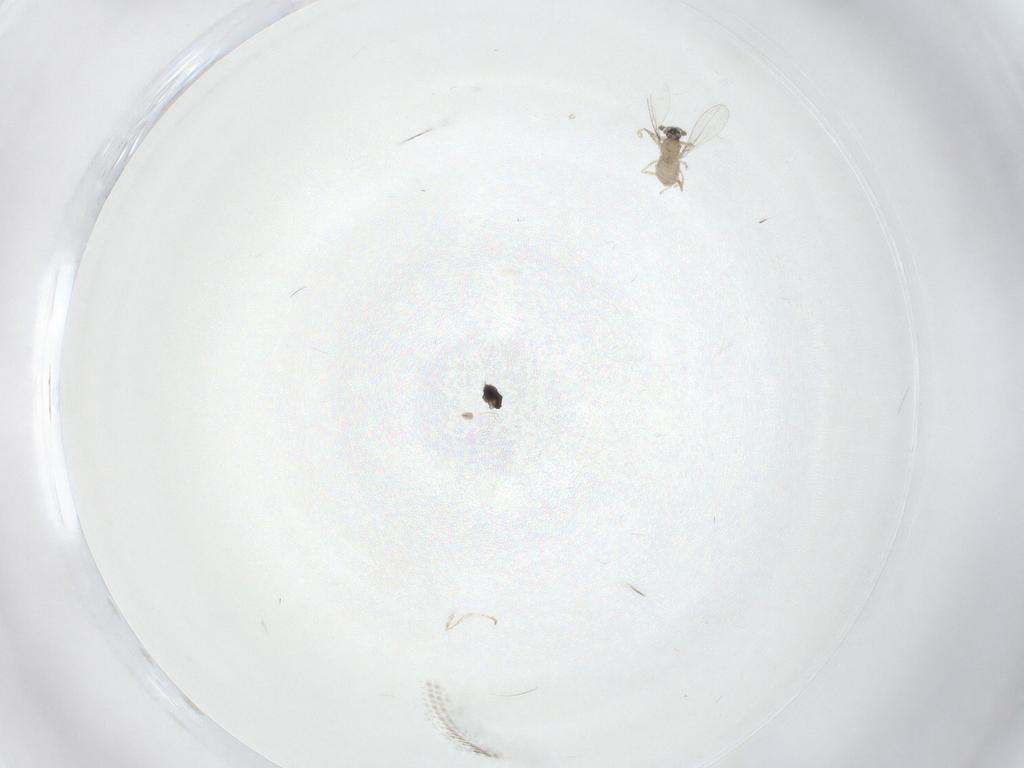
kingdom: Animalia
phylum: Arthropoda
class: Insecta
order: Diptera
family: Cecidomyiidae
